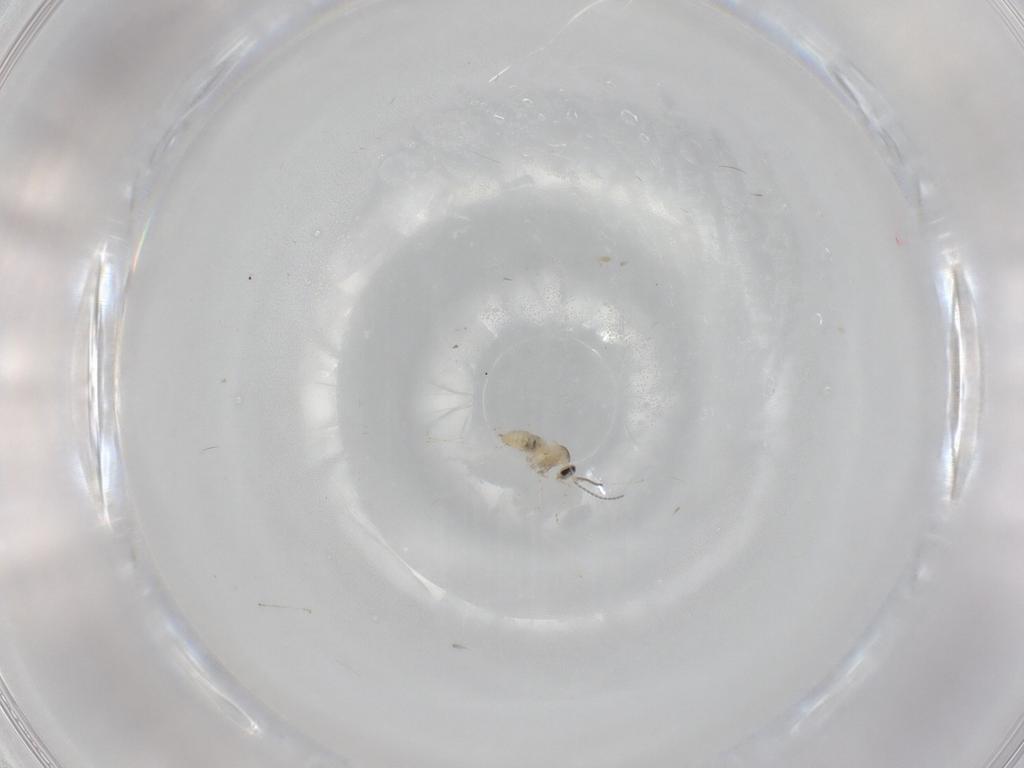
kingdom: Animalia
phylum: Arthropoda
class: Insecta
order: Diptera
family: Cecidomyiidae
